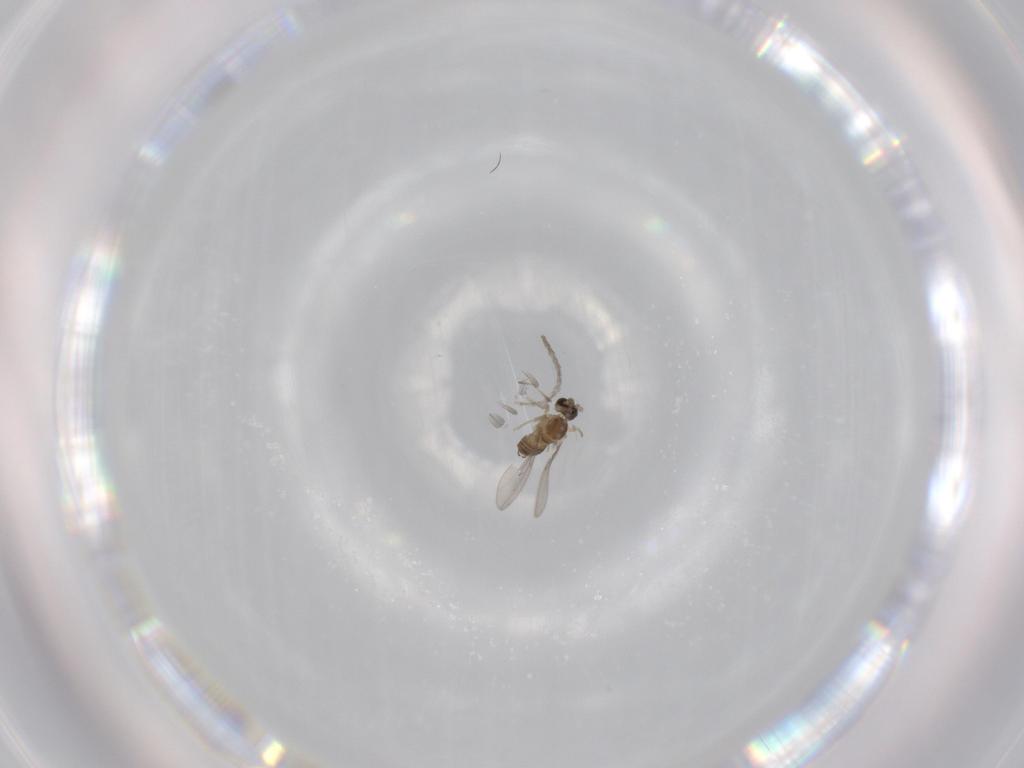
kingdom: Animalia
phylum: Arthropoda
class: Insecta
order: Diptera
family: Cecidomyiidae
